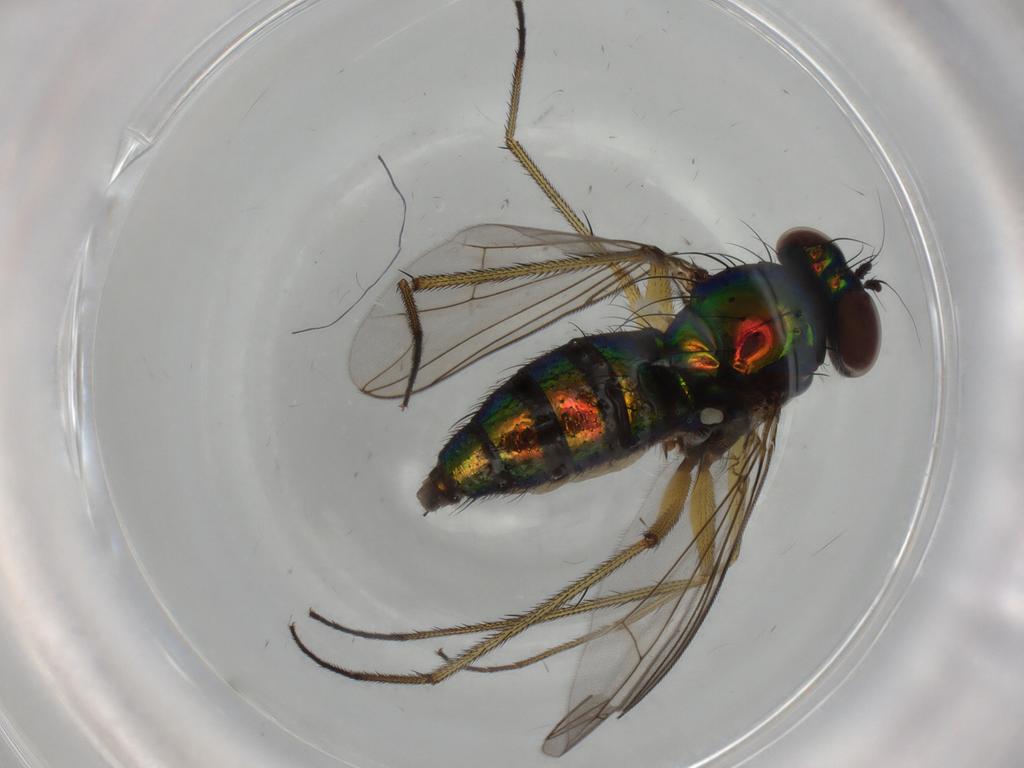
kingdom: Animalia
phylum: Arthropoda
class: Insecta
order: Diptera
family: Dolichopodidae
